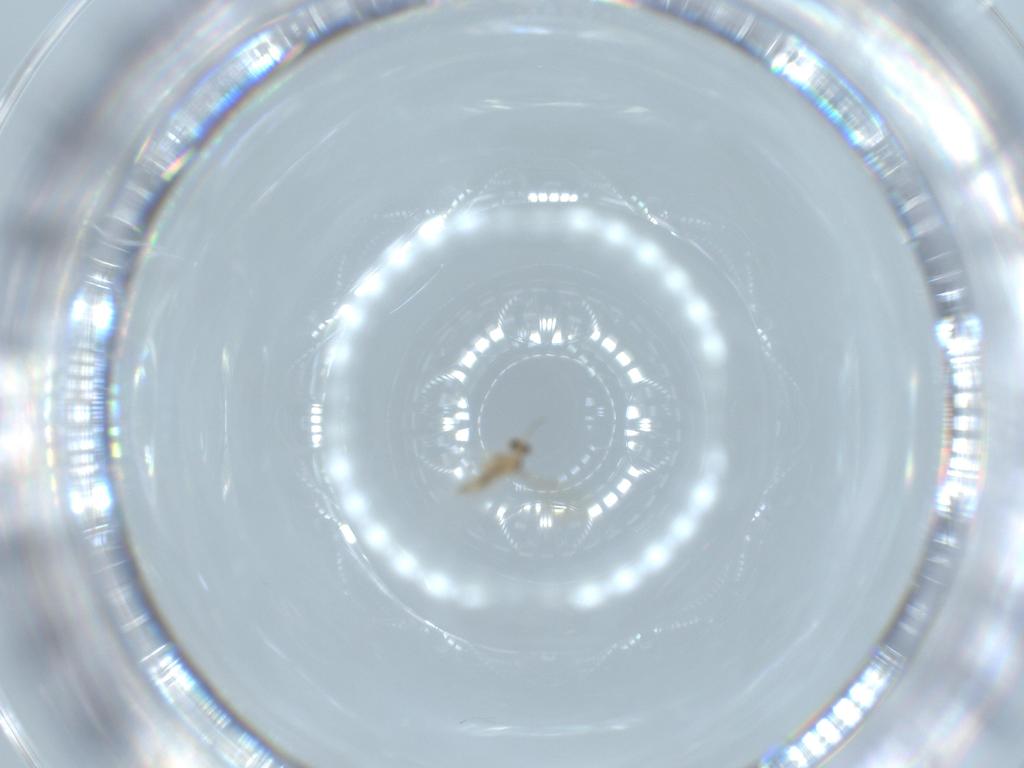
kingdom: Animalia
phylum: Arthropoda
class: Insecta
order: Diptera
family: Cecidomyiidae
